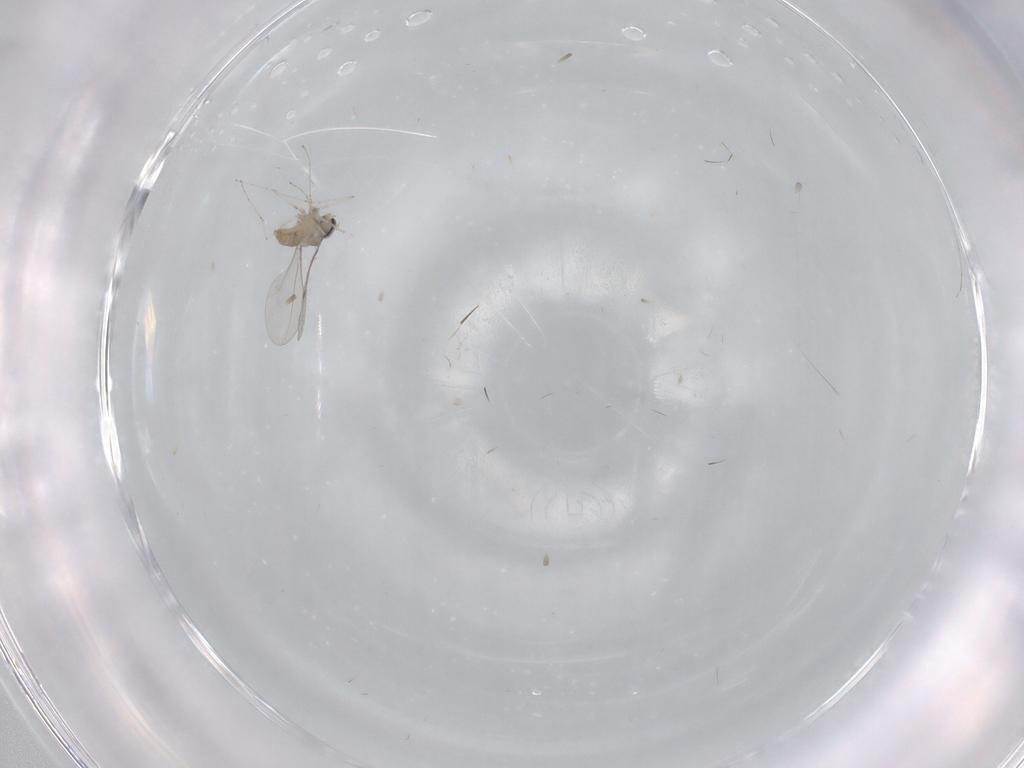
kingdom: Animalia
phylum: Arthropoda
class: Insecta
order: Diptera
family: Cecidomyiidae
